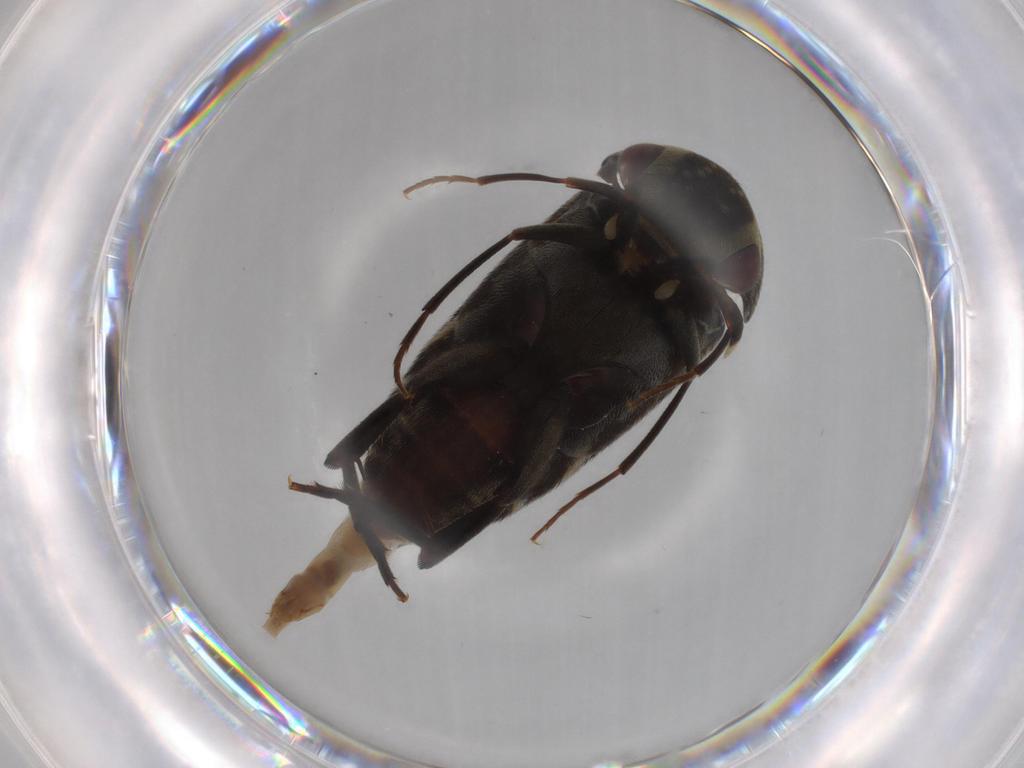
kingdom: Animalia
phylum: Arthropoda
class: Insecta
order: Coleoptera
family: Mordellidae
